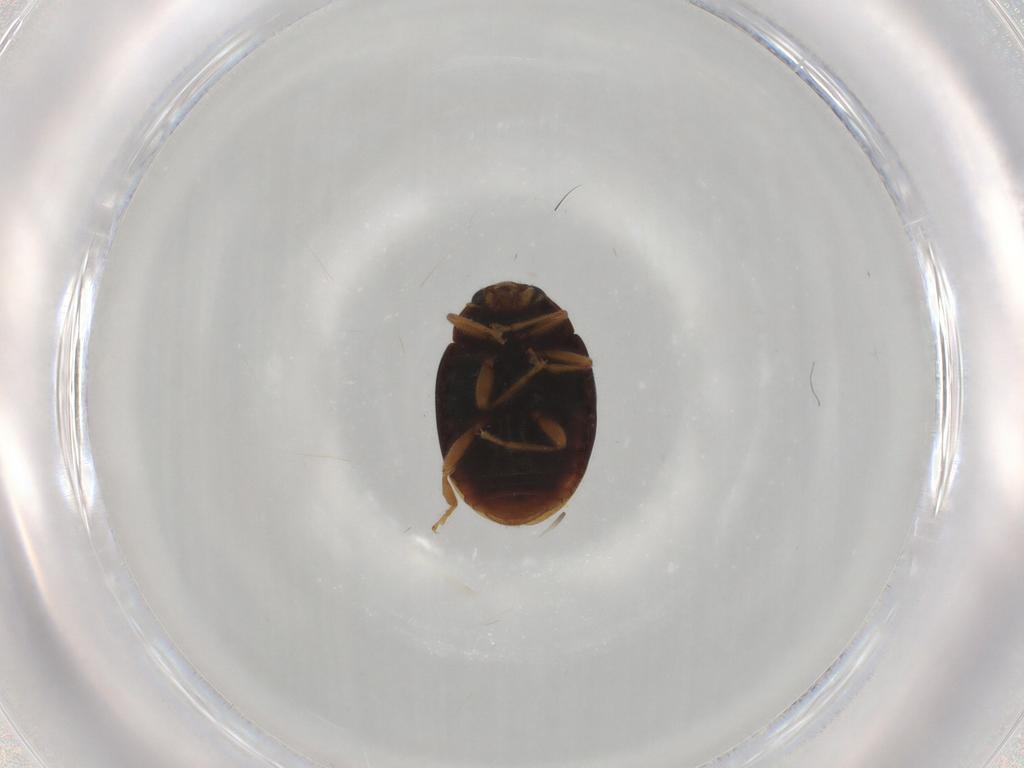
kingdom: Animalia
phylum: Arthropoda
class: Insecta
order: Coleoptera
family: Coccinellidae
